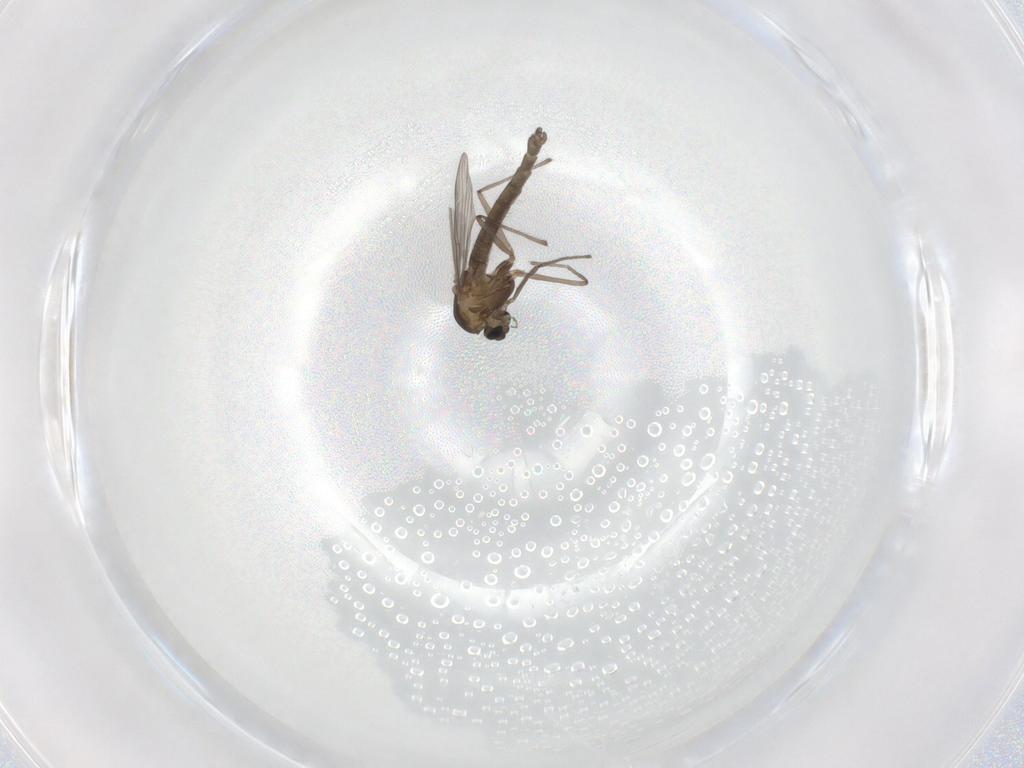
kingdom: Animalia
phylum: Arthropoda
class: Insecta
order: Diptera
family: Chironomidae
